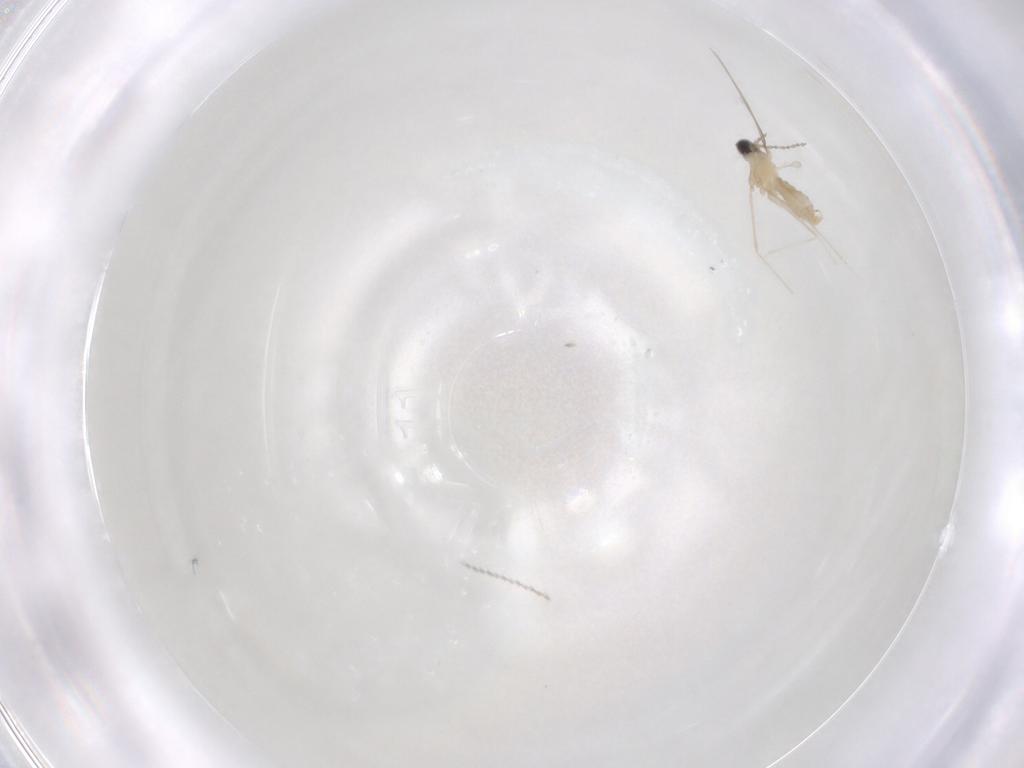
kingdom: Animalia
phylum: Arthropoda
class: Insecta
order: Diptera
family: Cecidomyiidae
